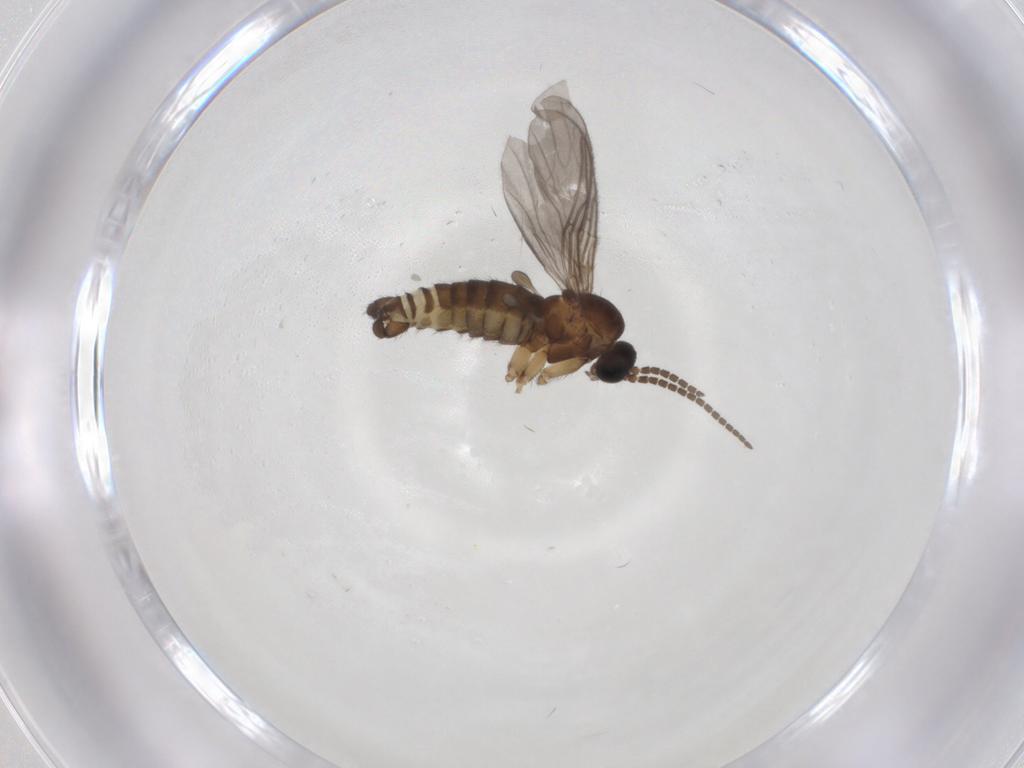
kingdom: Animalia
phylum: Arthropoda
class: Insecta
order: Diptera
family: Sciaridae
